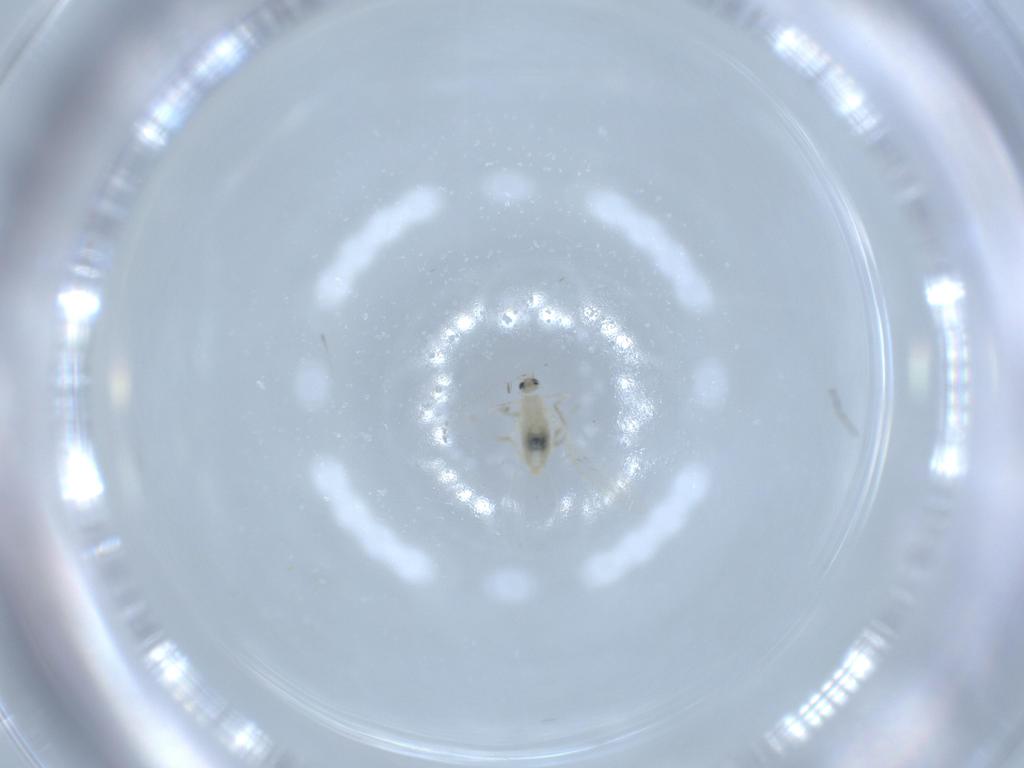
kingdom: Animalia
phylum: Arthropoda
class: Insecta
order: Diptera
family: Cecidomyiidae
